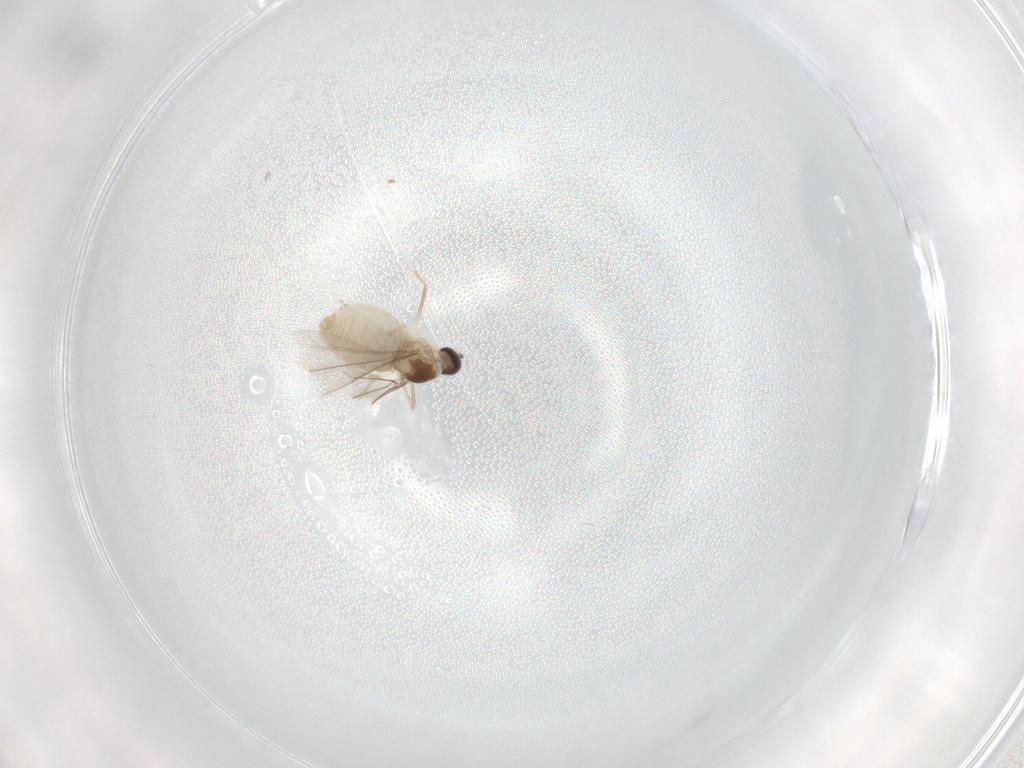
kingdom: Animalia
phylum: Arthropoda
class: Insecta
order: Diptera
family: Cecidomyiidae
